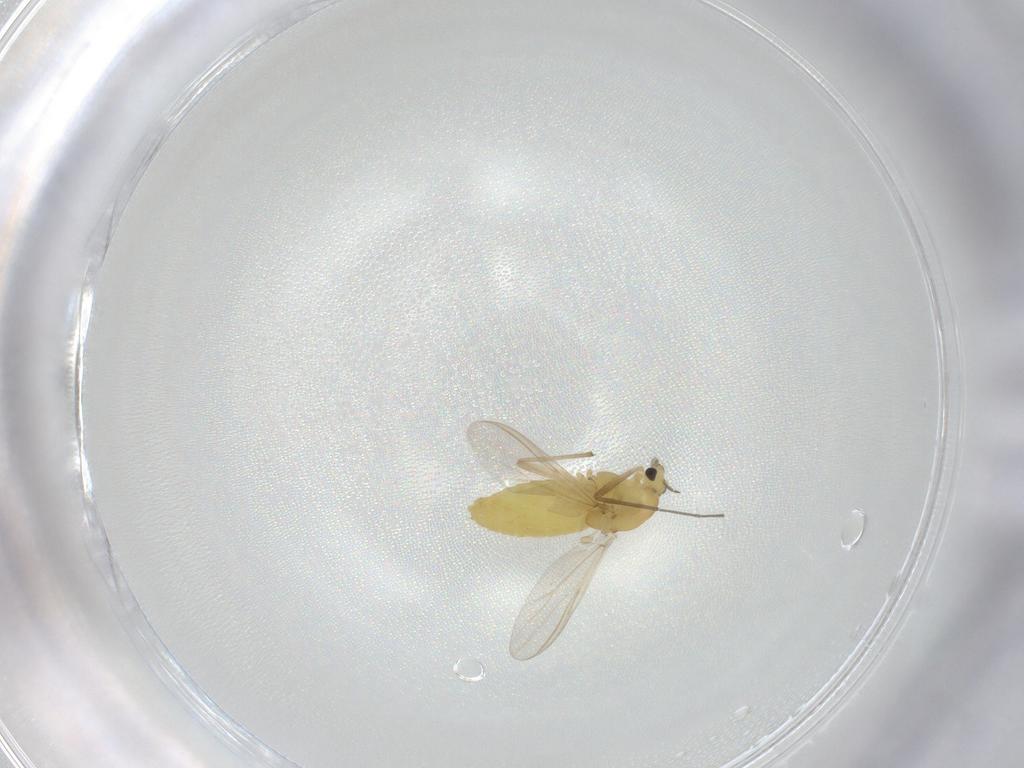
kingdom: Animalia
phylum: Arthropoda
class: Insecta
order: Diptera
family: Chironomidae
